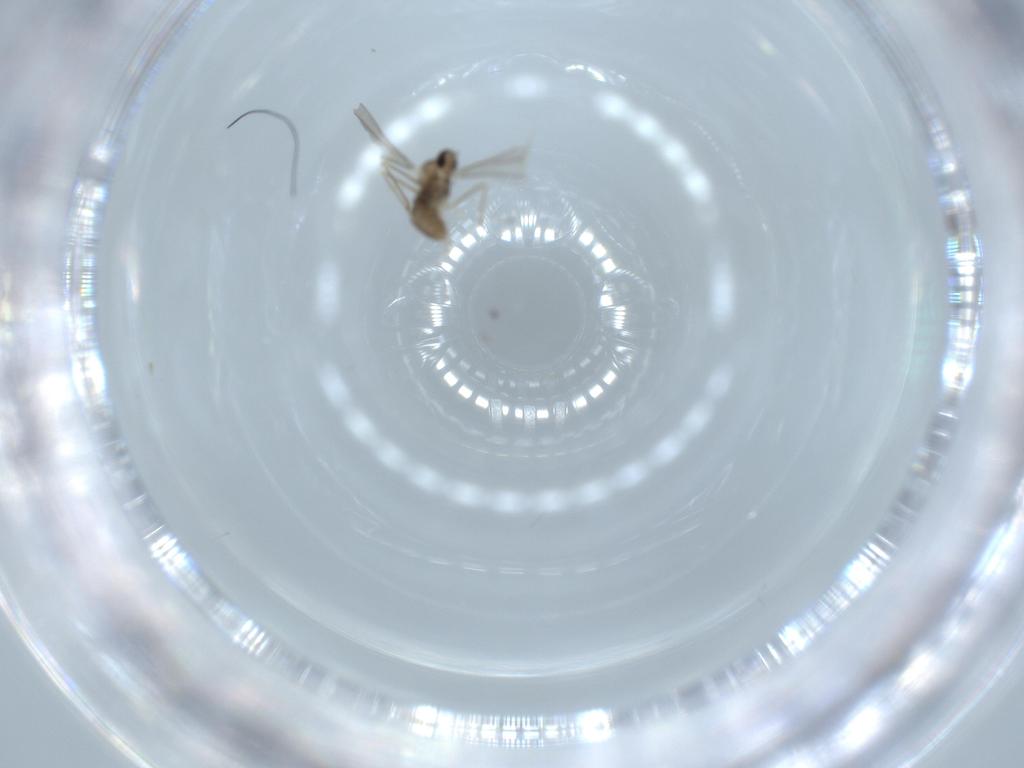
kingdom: Animalia
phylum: Arthropoda
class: Insecta
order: Diptera
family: Cecidomyiidae
